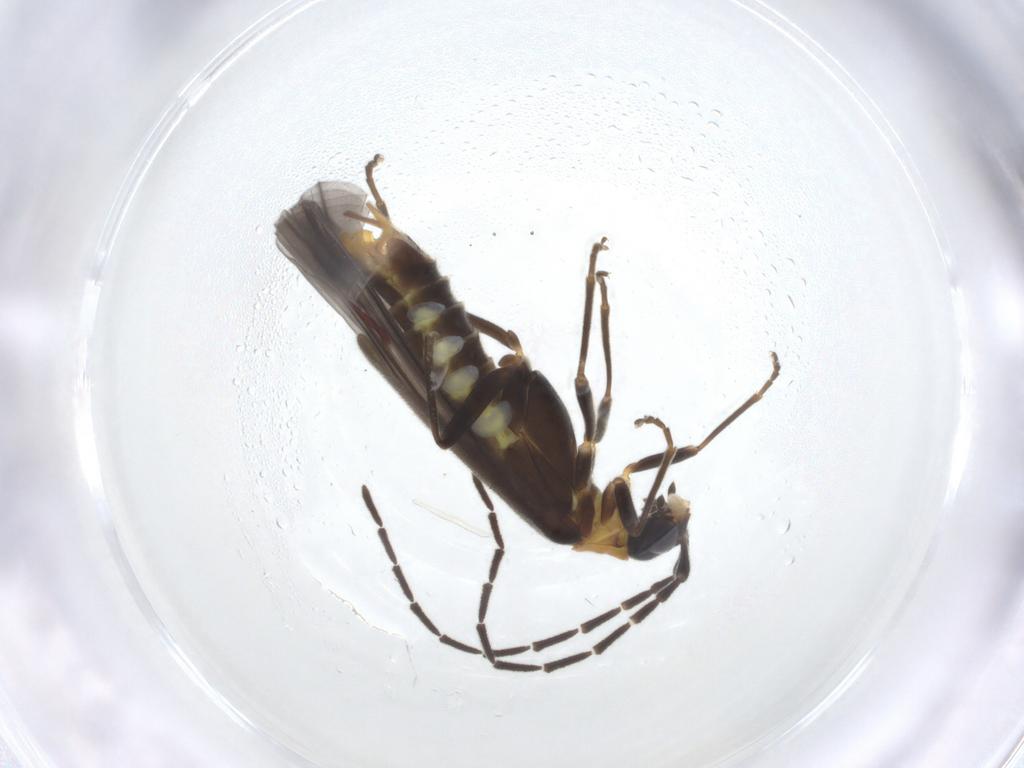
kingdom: Animalia
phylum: Arthropoda
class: Insecta
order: Coleoptera
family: Cantharidae
